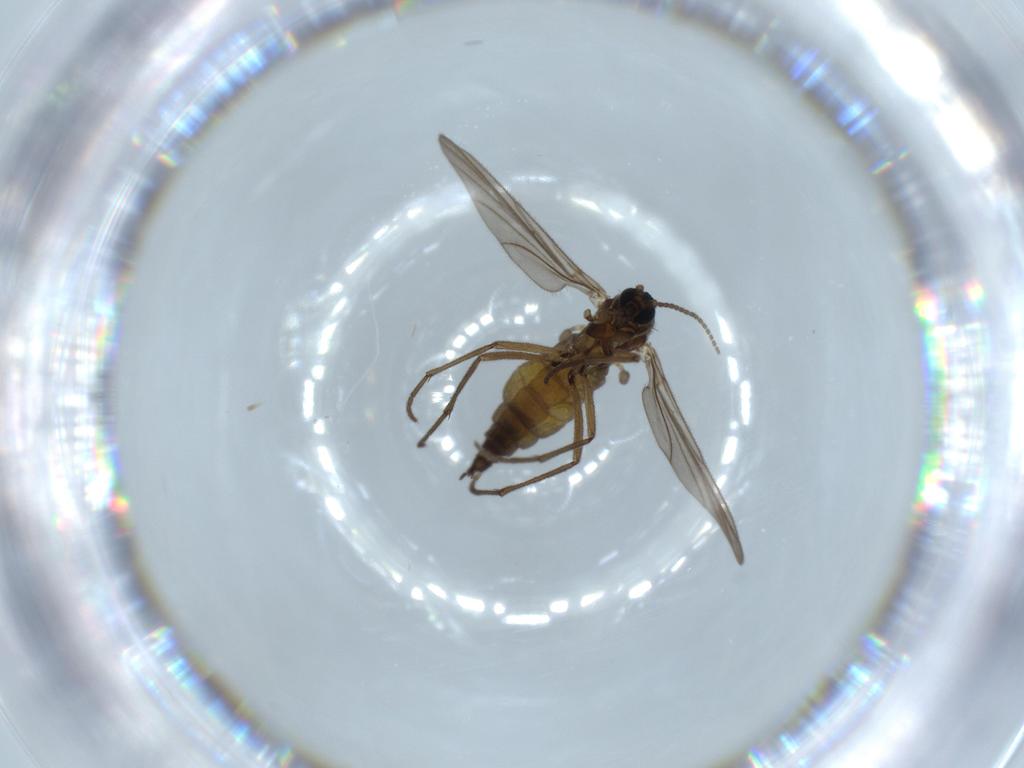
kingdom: Animalia
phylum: Arthropoda
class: Insecta
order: Diptera
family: Sciaridae
